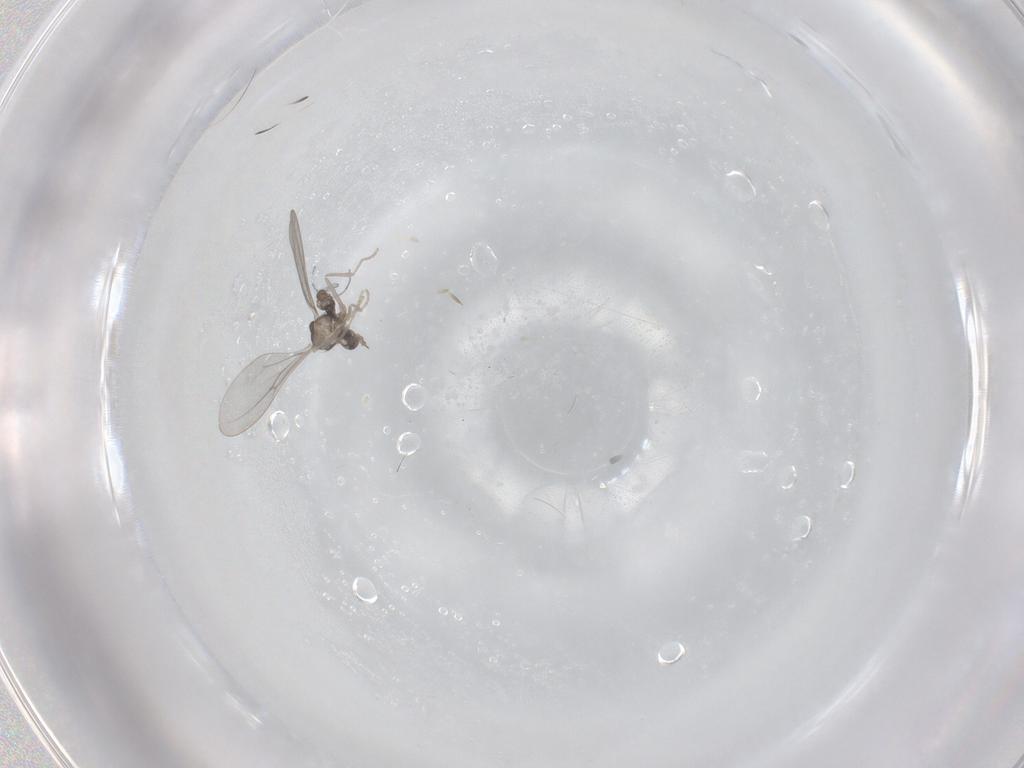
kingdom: Animalia
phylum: Arthropoda
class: Insecta
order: Diptera
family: Cecidomyiidae
